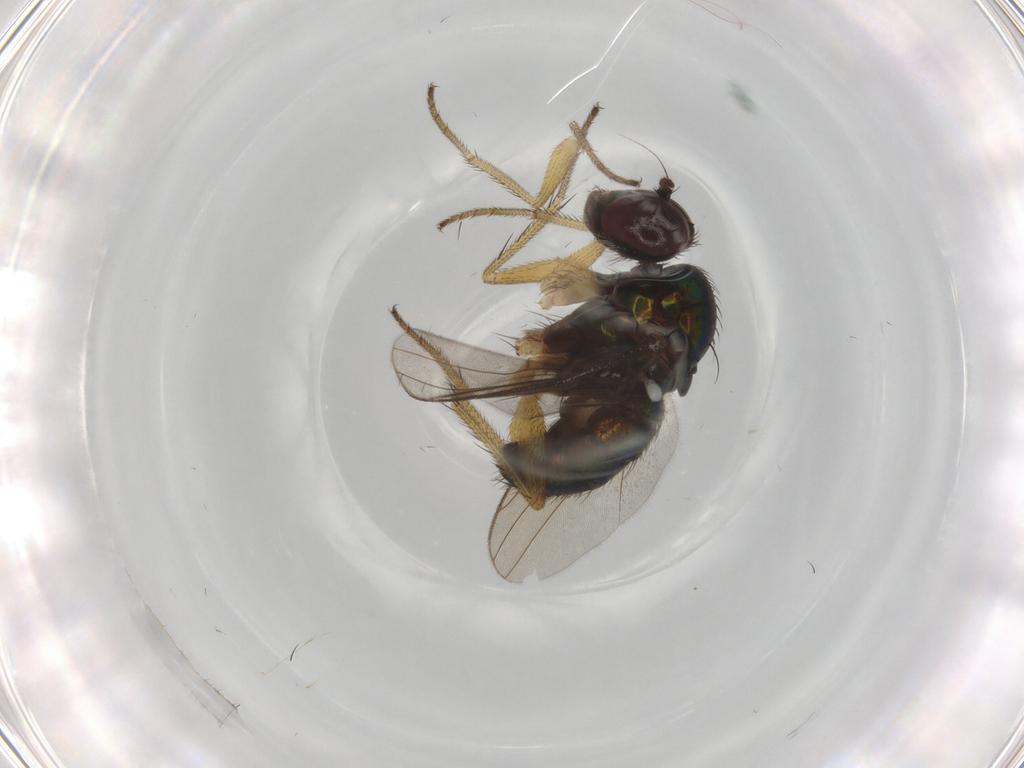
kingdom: Animalia
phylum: Arthropoda
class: Insecta
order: Diptera
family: Dolichopodidae
